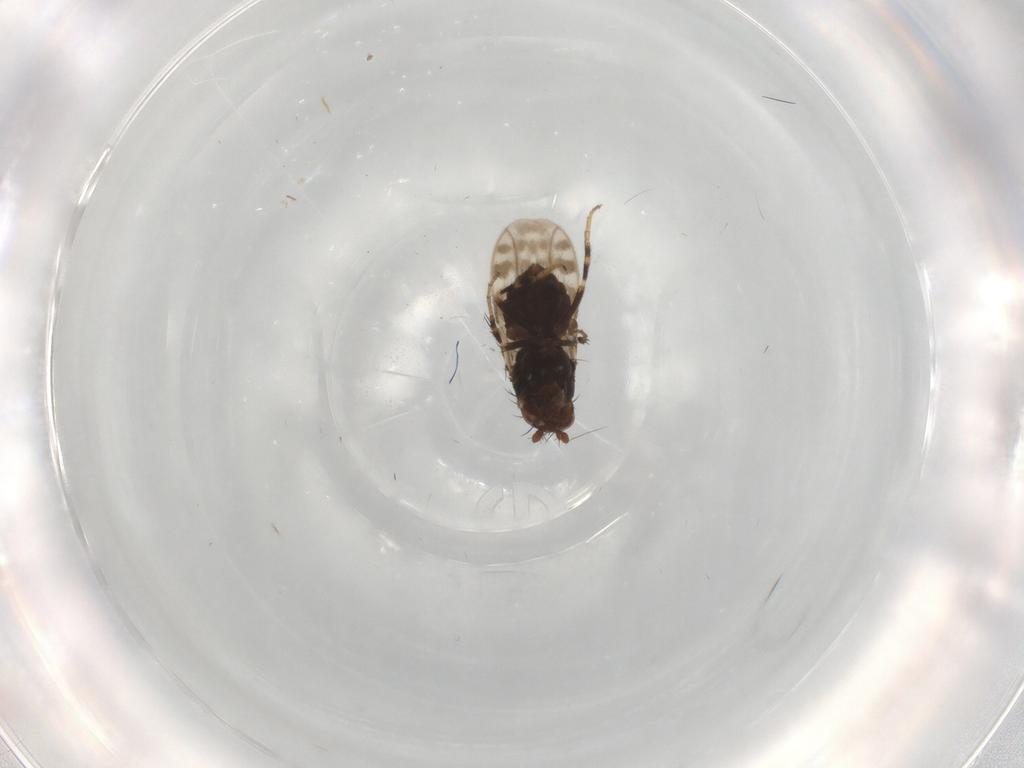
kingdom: Animalia
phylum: Arthropoda
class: Insecta
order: Diptera
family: Sphaeroceridae
